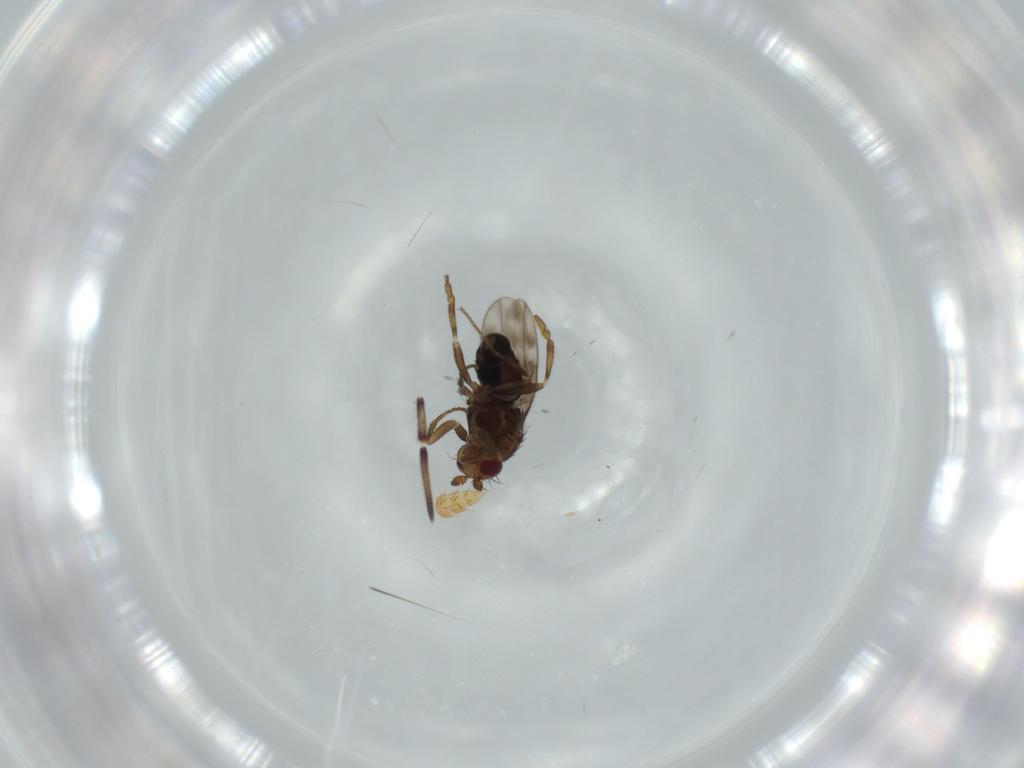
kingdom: Animalia
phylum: Arthropoda
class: Insecta
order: Diptera
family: Sphaeroceridae
